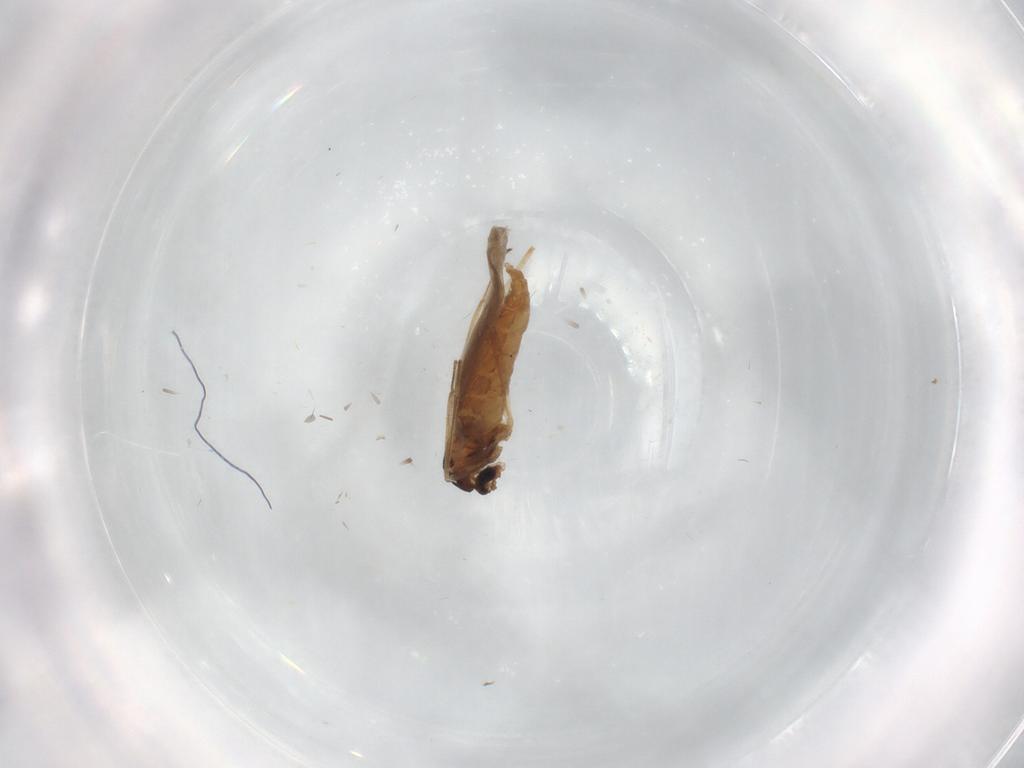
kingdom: Animalia
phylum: Arthropoda
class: Insecta
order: Diptera
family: Cecidomyiidae
